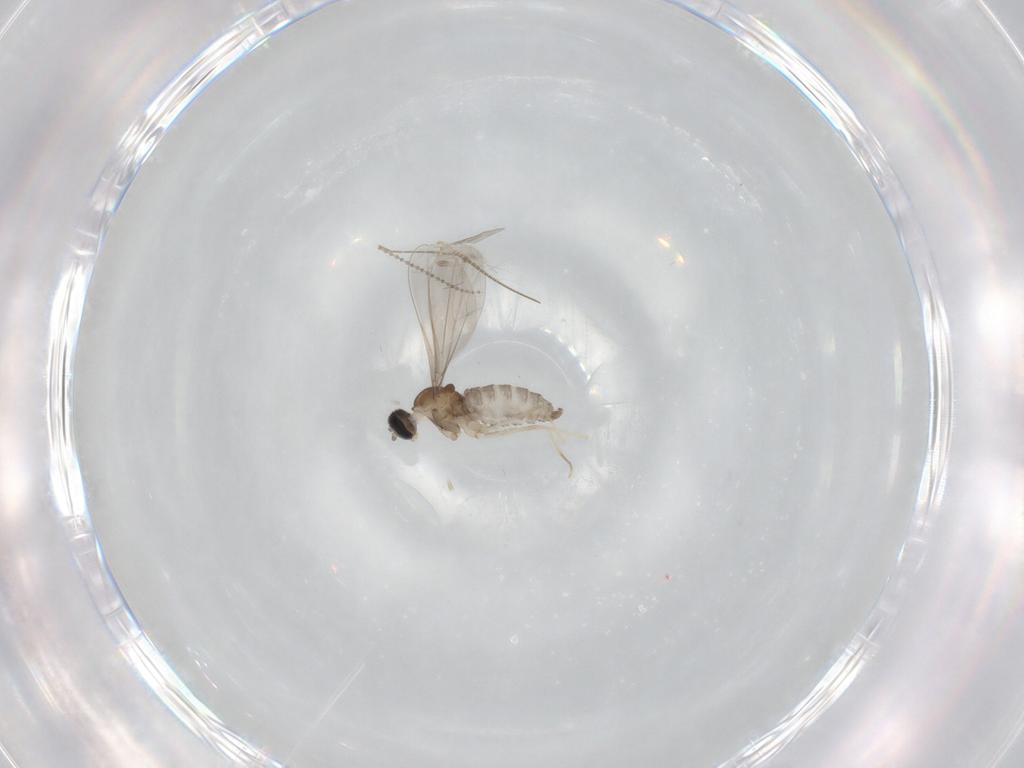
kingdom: Animalia
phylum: Arthropoda
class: Insecta
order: Diptera
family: Cecidomyiidae
